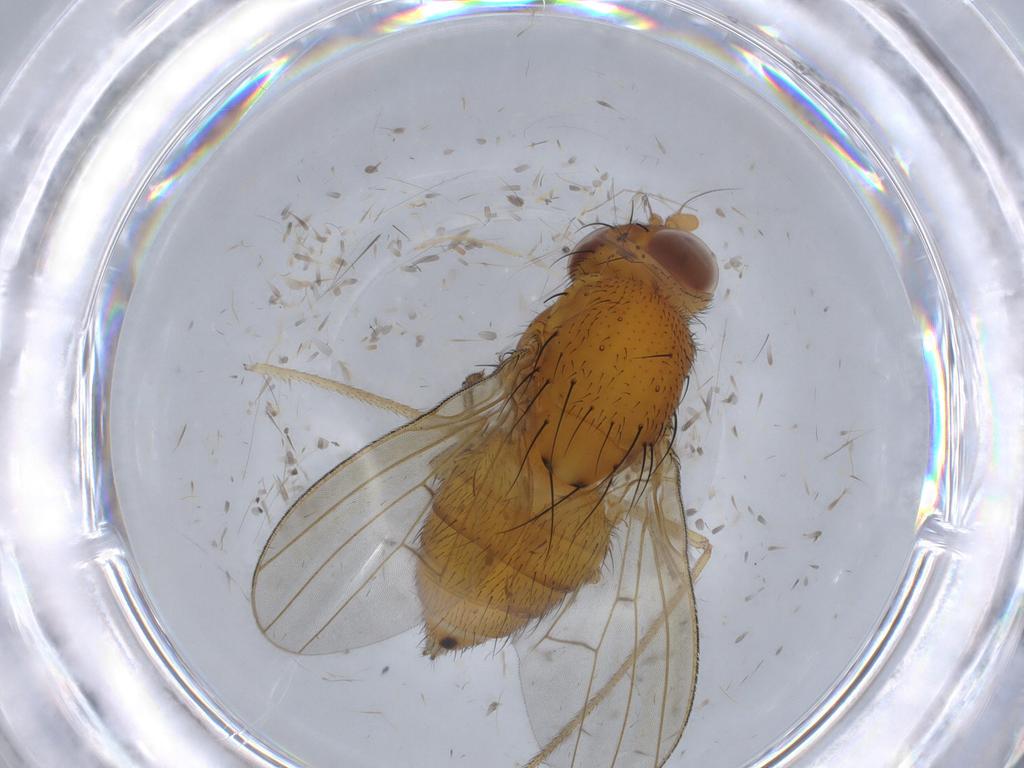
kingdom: Animalia
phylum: Arthropoda
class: Insecta
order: Diptera
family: Limoniidae
